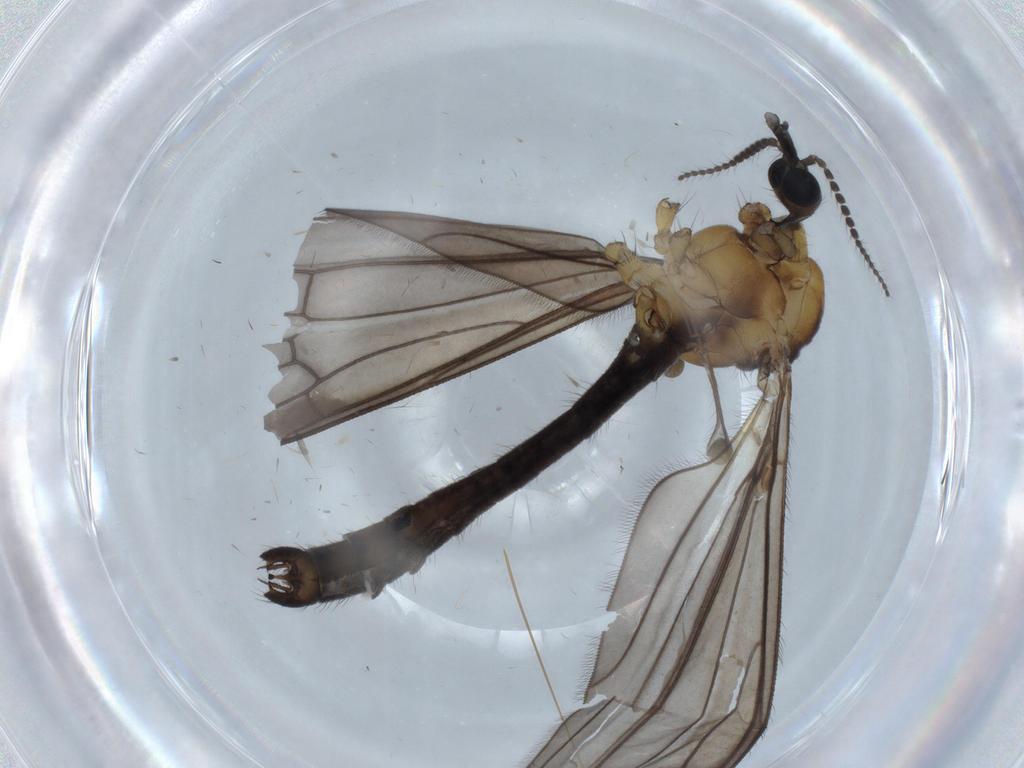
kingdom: Animalia
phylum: Arthropoda
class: Insecta
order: Diptera
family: Limoniidae
